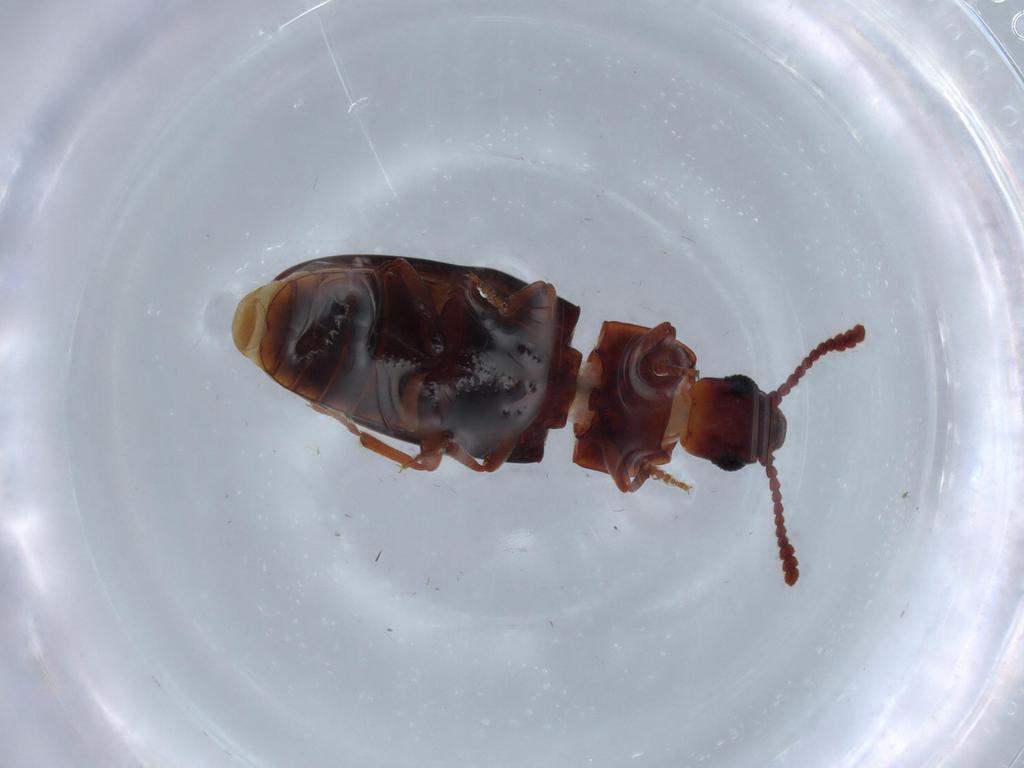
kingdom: Animalia
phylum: Arthropoda
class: Insecta
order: Coleoptera
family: Erotylidae
